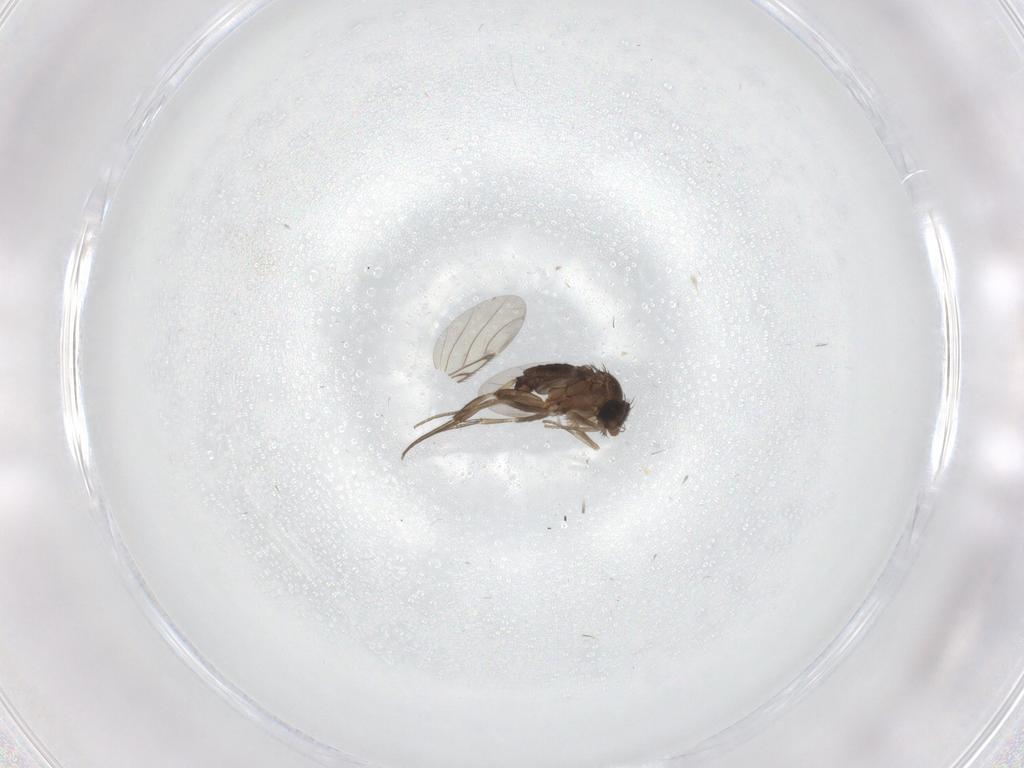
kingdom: Animalia
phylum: Arthropoda
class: Insecta
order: Diptera
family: Phoridae
